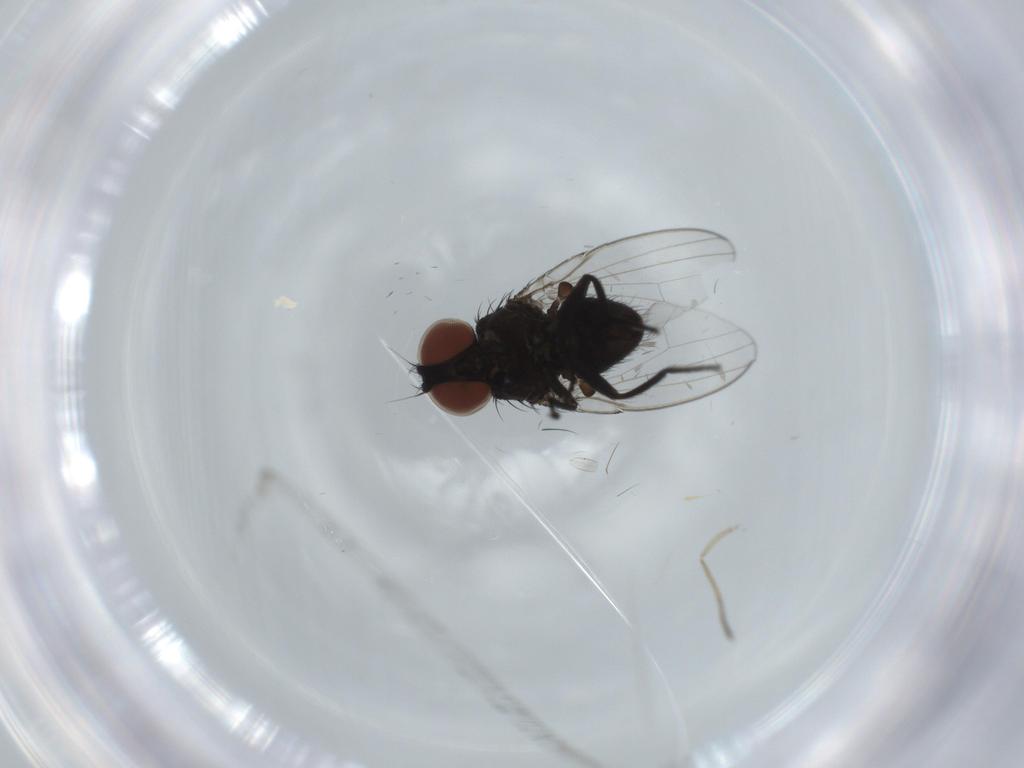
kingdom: Animalia
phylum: Arthropoda
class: Insecta
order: Diptera
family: Milichiidae
